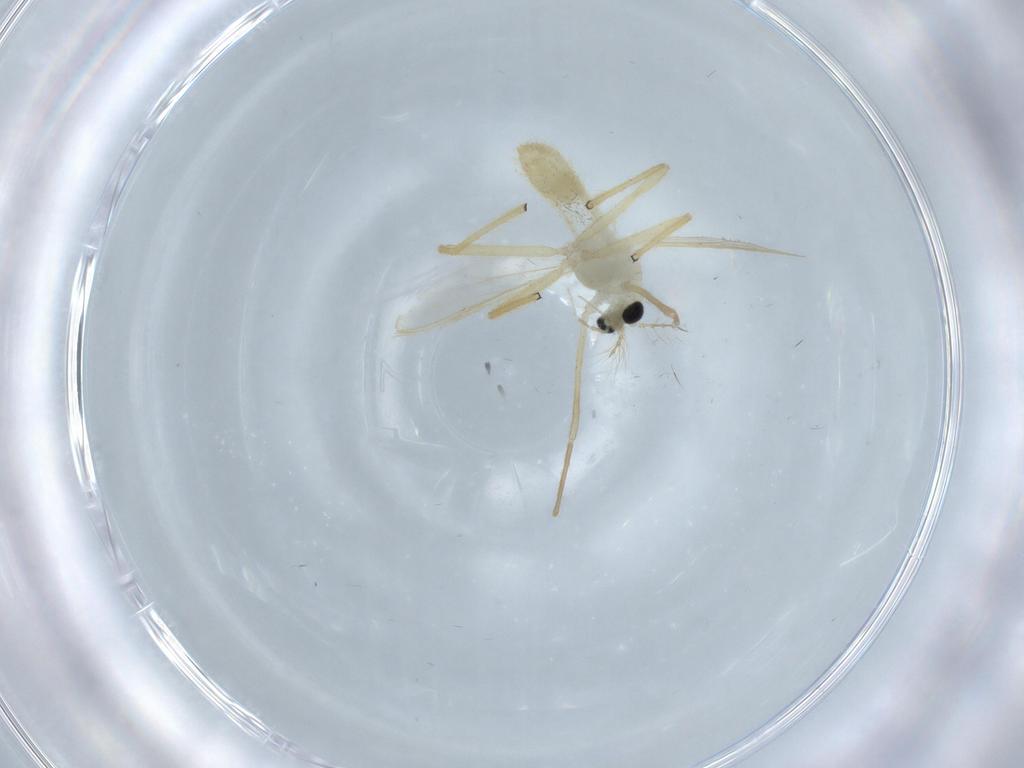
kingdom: Animalia
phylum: Arthropoda
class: Insecta
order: Diptera
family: Chironomidae
